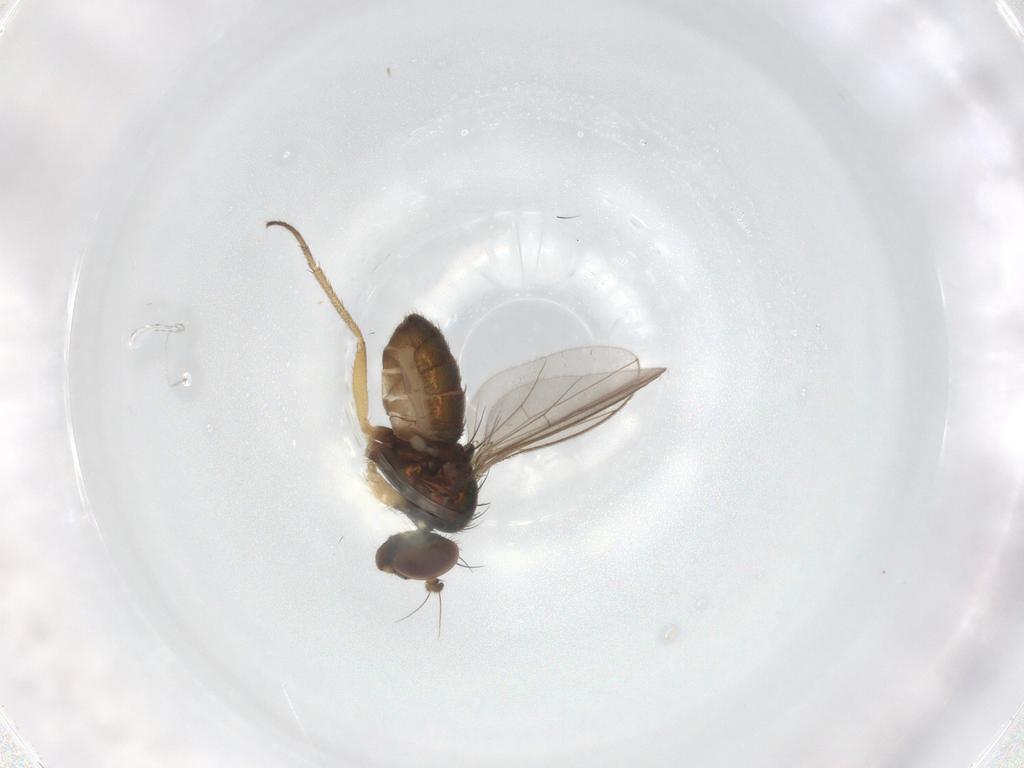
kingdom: Animalia
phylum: Arthropoda
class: Insecta
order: Diptera
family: Dolichopodidae
